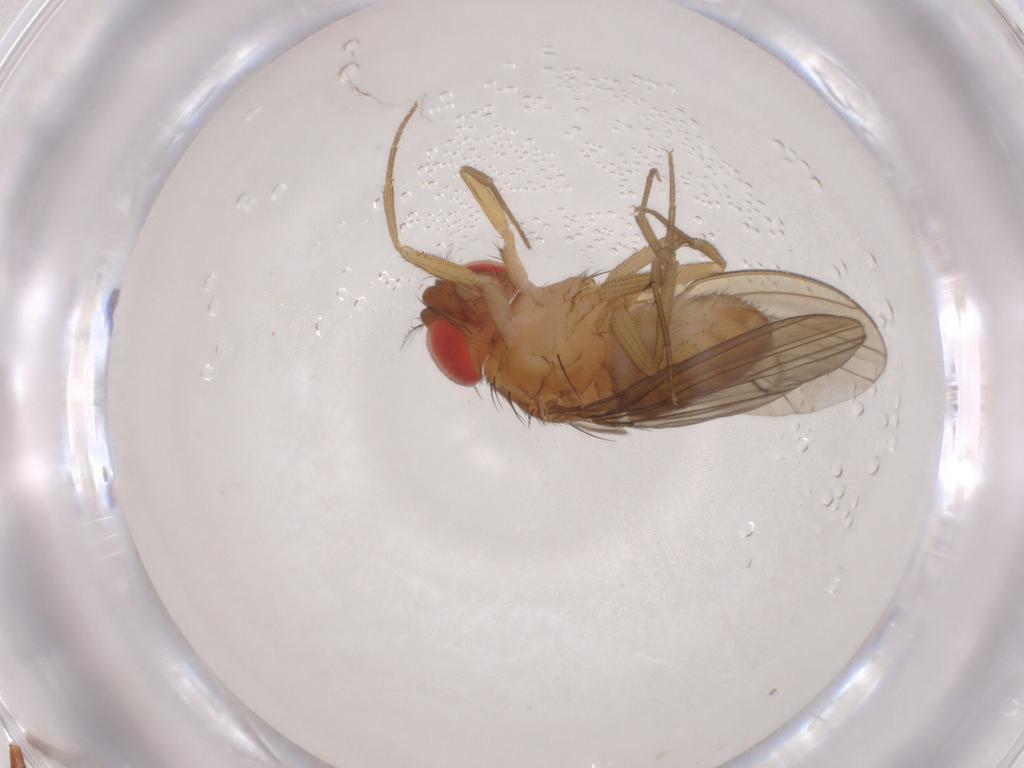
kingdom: Animalia
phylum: Arthropoda
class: Insecta
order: Diptera
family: Drosophilidae
